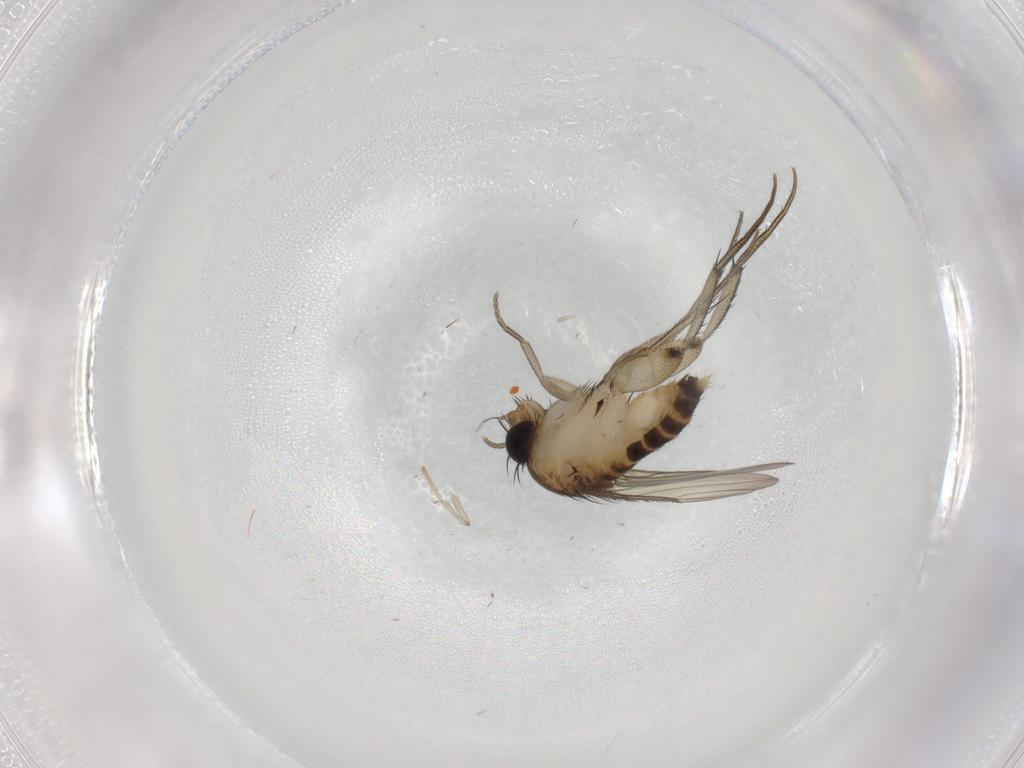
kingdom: Animalia
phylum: Arthropoda
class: Insecta
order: Diptera
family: Phoridae
